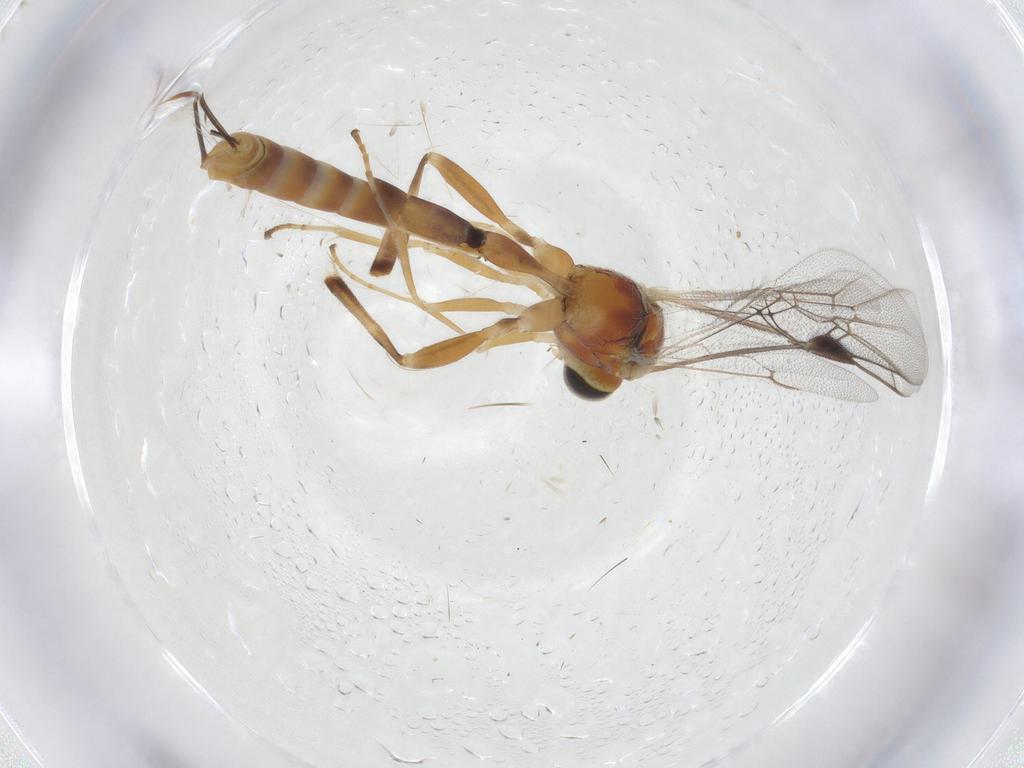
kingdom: Animalia
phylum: Arthropoda
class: Insecta
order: Hymenoptera
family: Ichneumonidae
